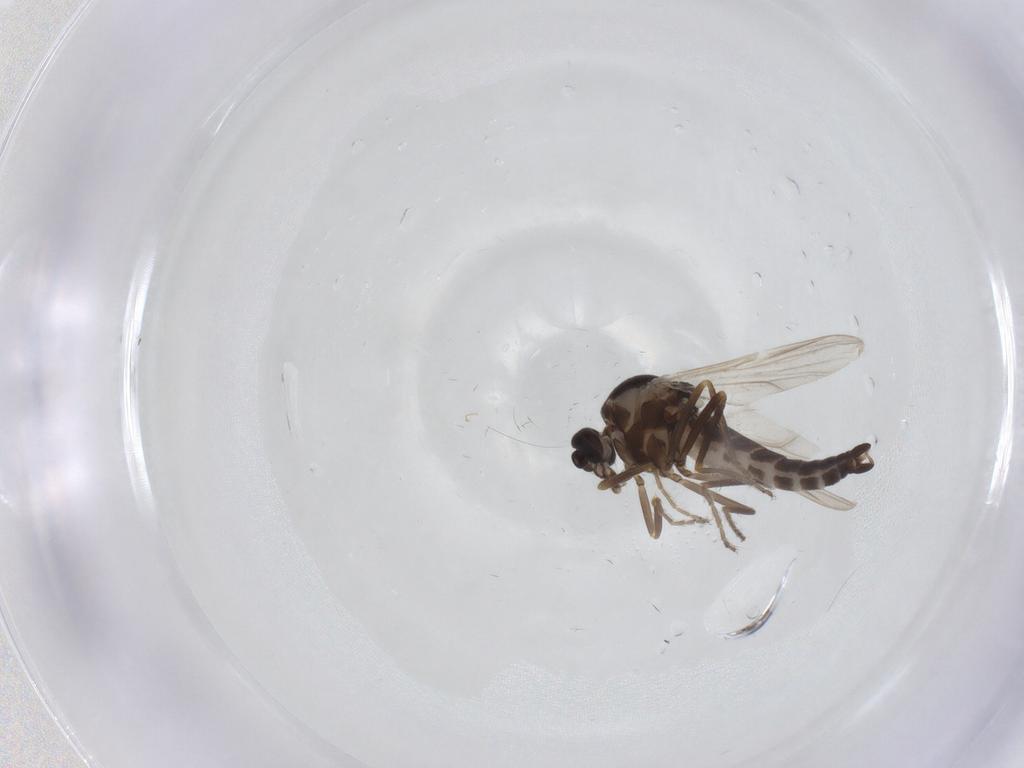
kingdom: Animalia
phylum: Arthropoda
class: Insecta
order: Diptera
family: Ceratopogonidae
